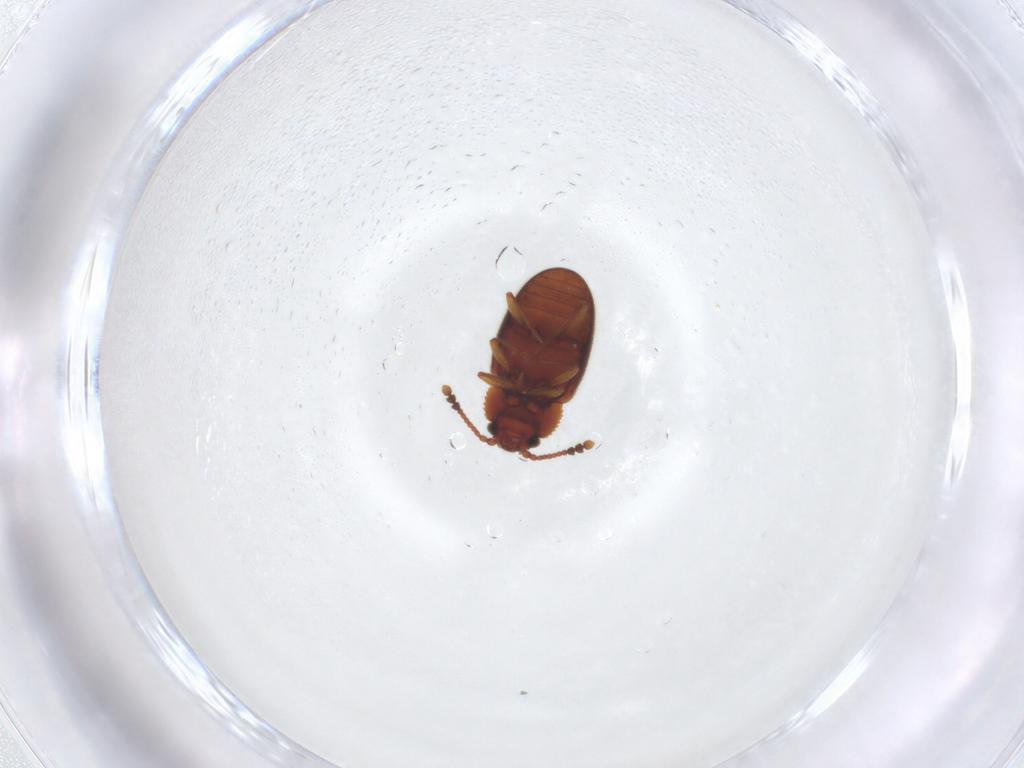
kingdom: Animalia
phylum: Arthropoda
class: Insecta
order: Coleoptera
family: Cryptophagidae
